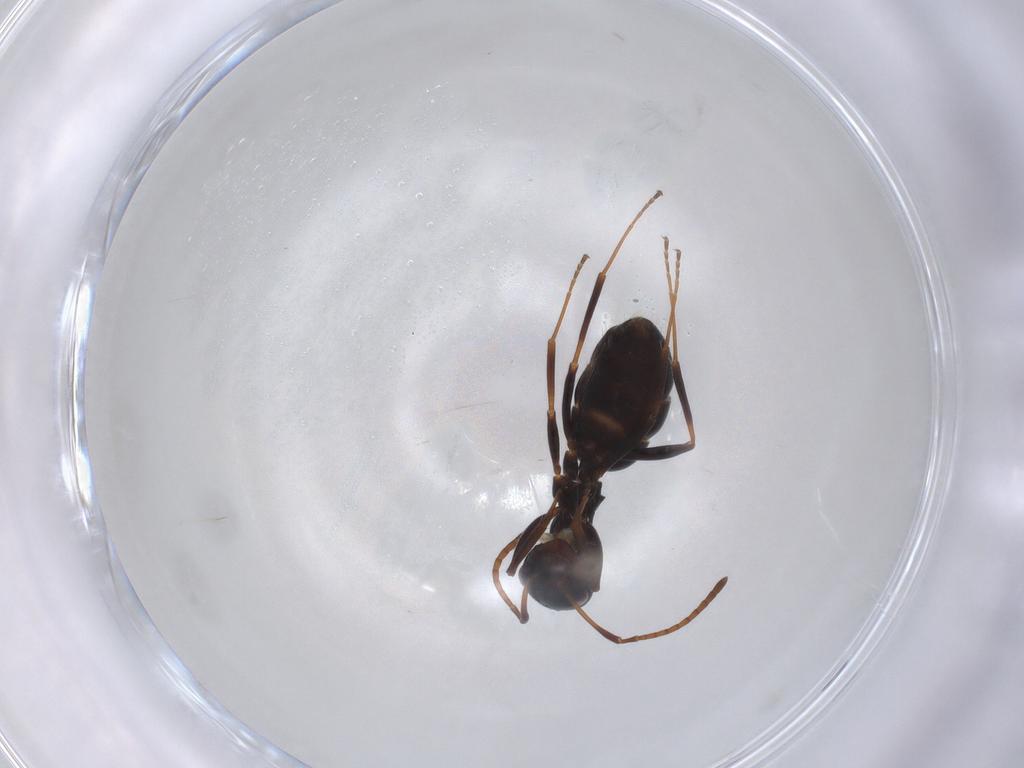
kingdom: Animalia
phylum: Arthropoda
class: Insecta
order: Hymenoptera
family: Formicidae
